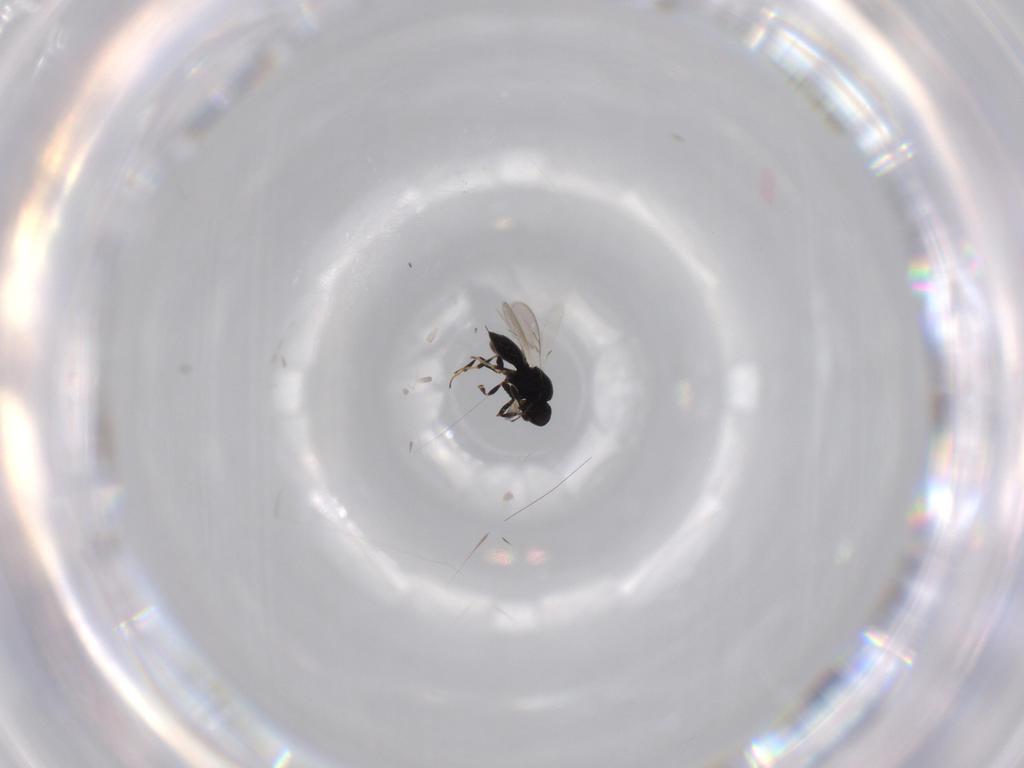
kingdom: Animalia
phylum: Arthropoda
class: Insecta
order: Hymenoptera
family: Scelionidae
